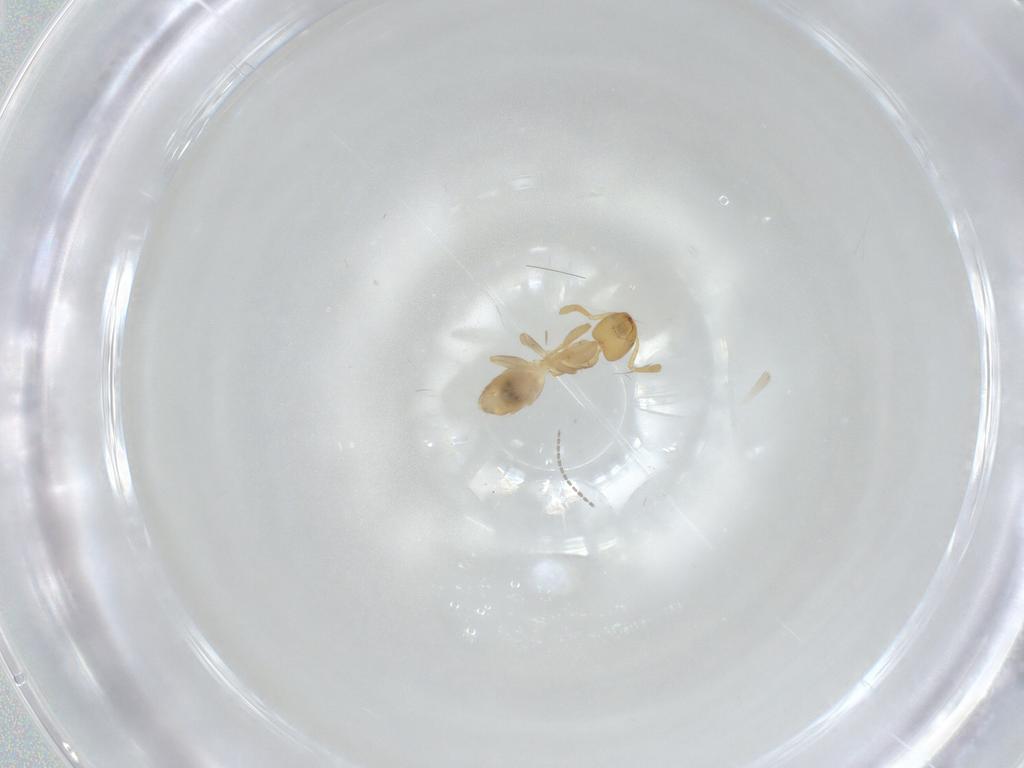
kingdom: Animalia
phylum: Arthropoda
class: Insecta
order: Hymenoptera
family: Formicidae
